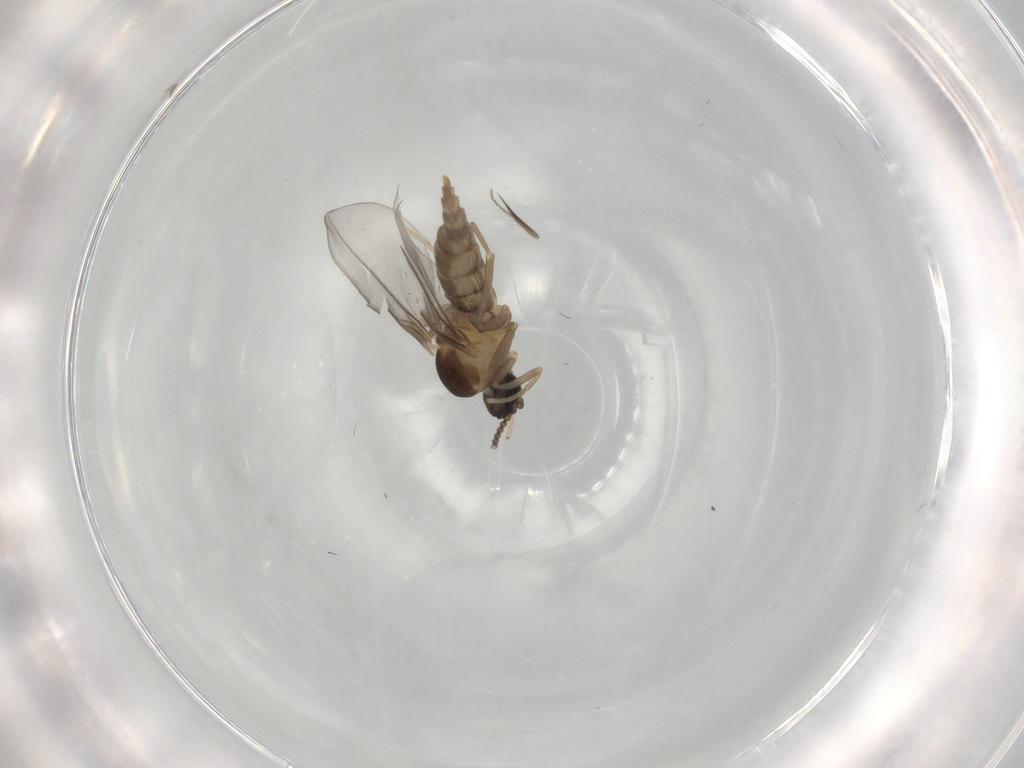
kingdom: Animalia
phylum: Arthropoda
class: Insecta
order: Diptera
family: Cecidomyiidae
